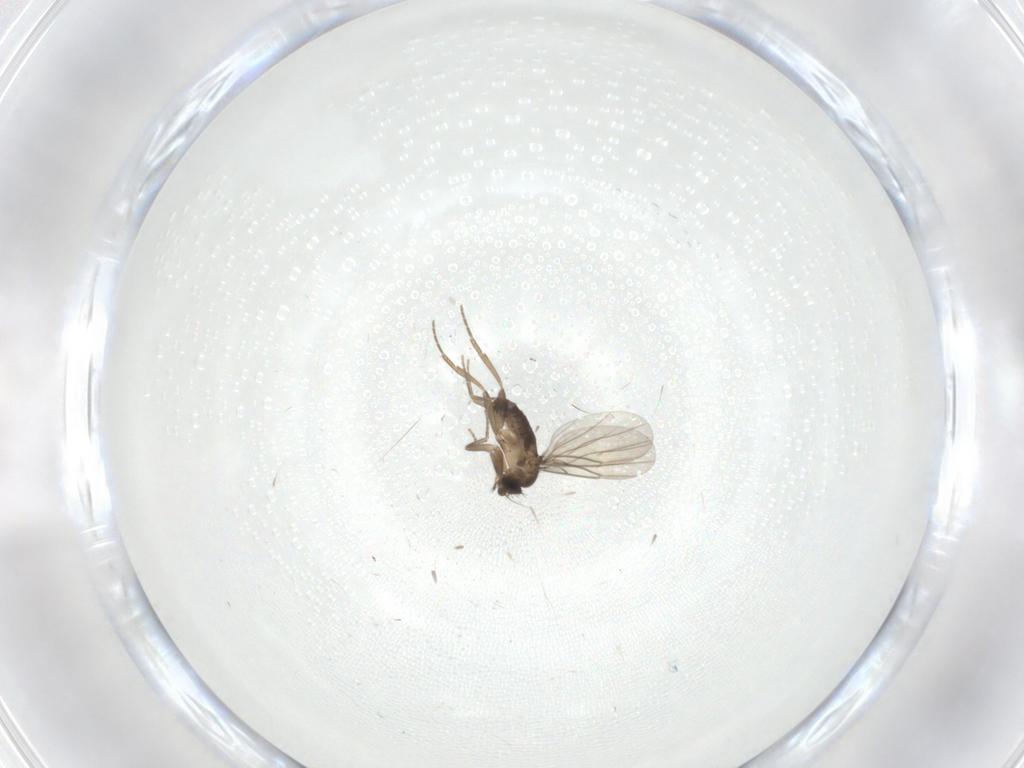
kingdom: Animalia
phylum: Arthropoda
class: Insecta
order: Diptera
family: Phoridae
